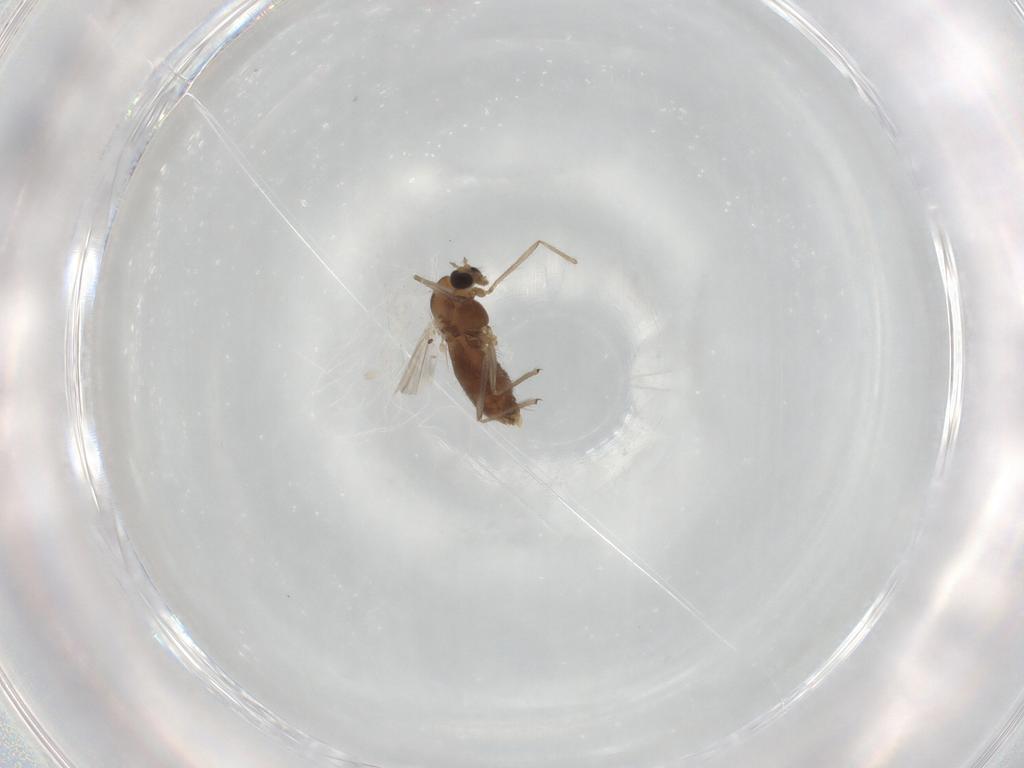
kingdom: Animalia
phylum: Arthropoda
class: Insecta
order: Diptera
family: Chironomidae
